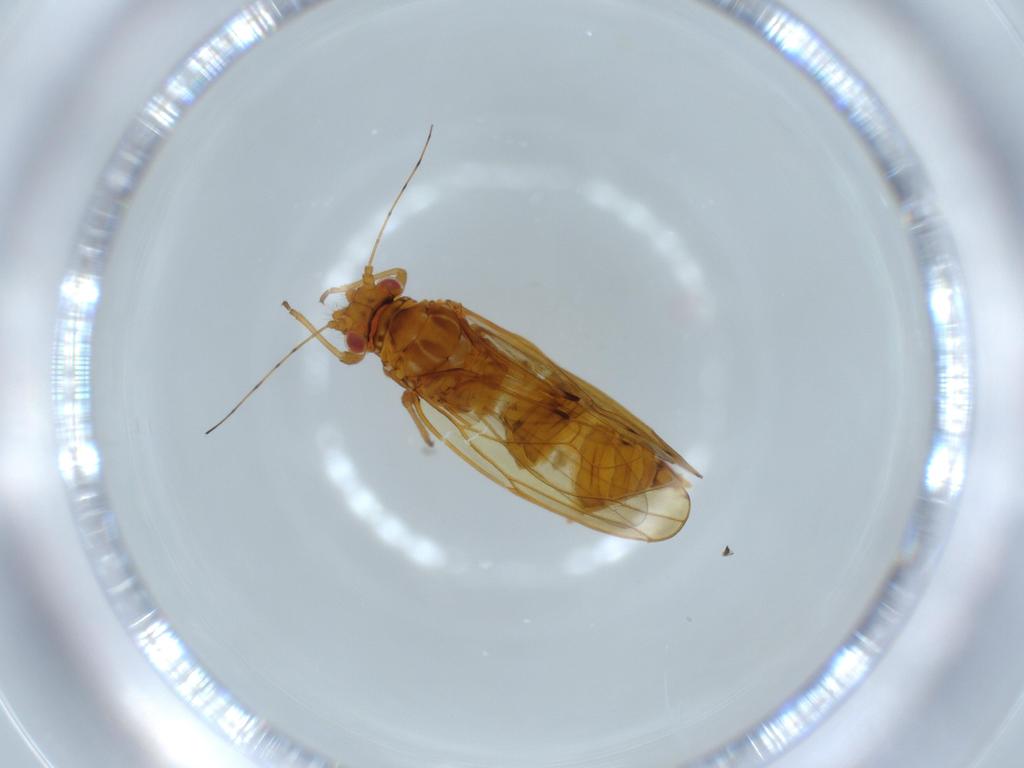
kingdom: Animalia
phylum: Arthropoda
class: Insecta
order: Hemiptera
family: Psylloidea_incertae_sedis
